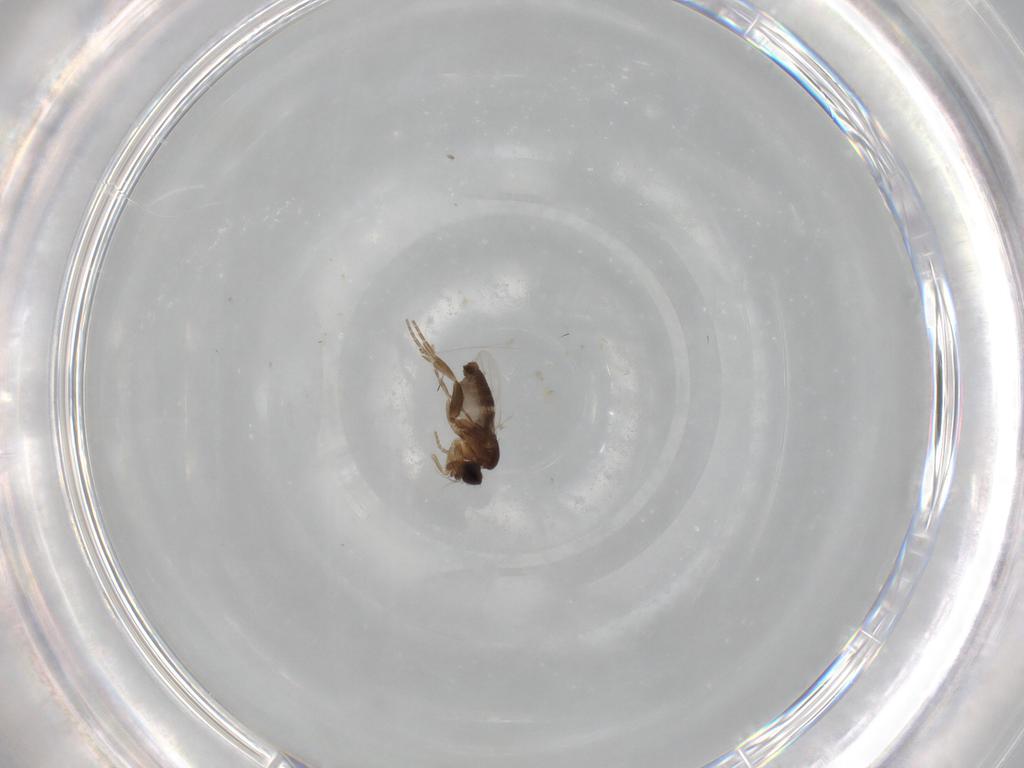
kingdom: Animalia
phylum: Arthropoda
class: Insecta
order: Diptera
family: Phoridae
